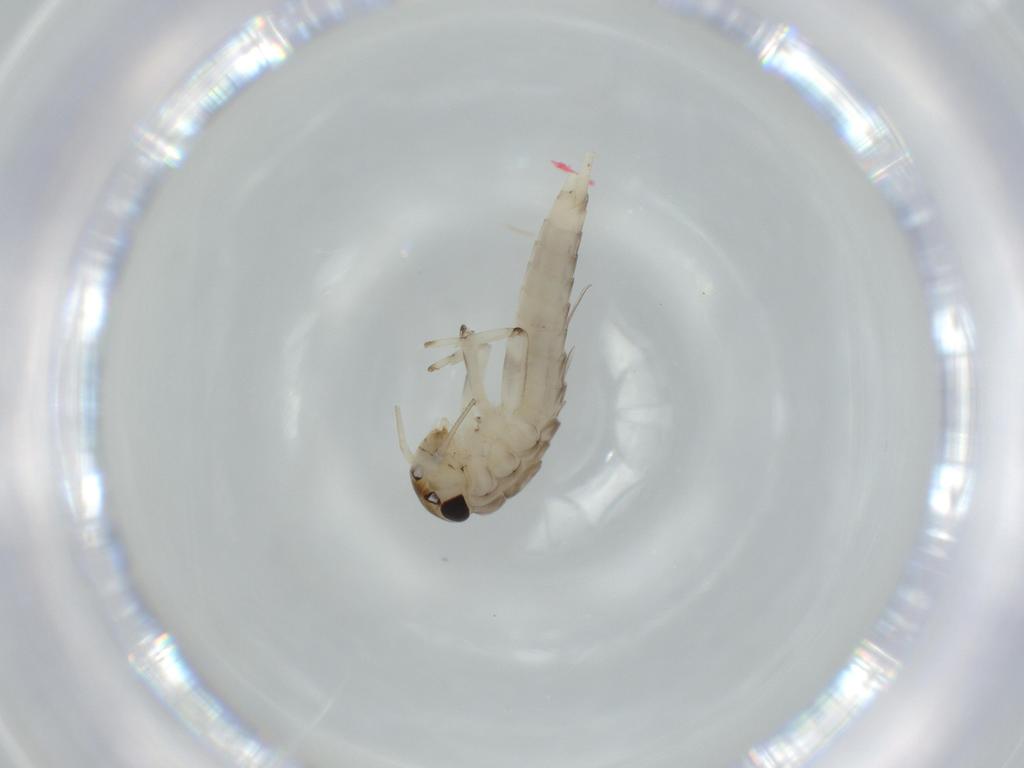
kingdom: Animalia
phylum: Arthropoda
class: Insecta
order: Ephemeroptera
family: Baetidae
